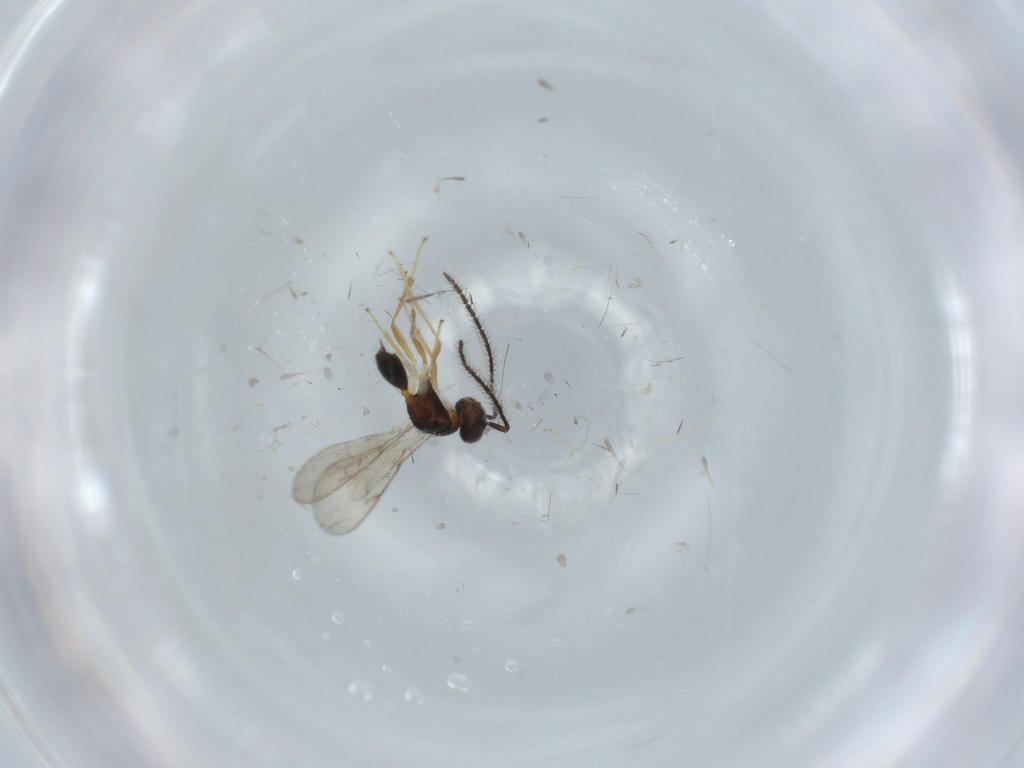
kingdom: Animalia
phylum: Arthropoda
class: Insecta
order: Hymenoptera
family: Diparidae
